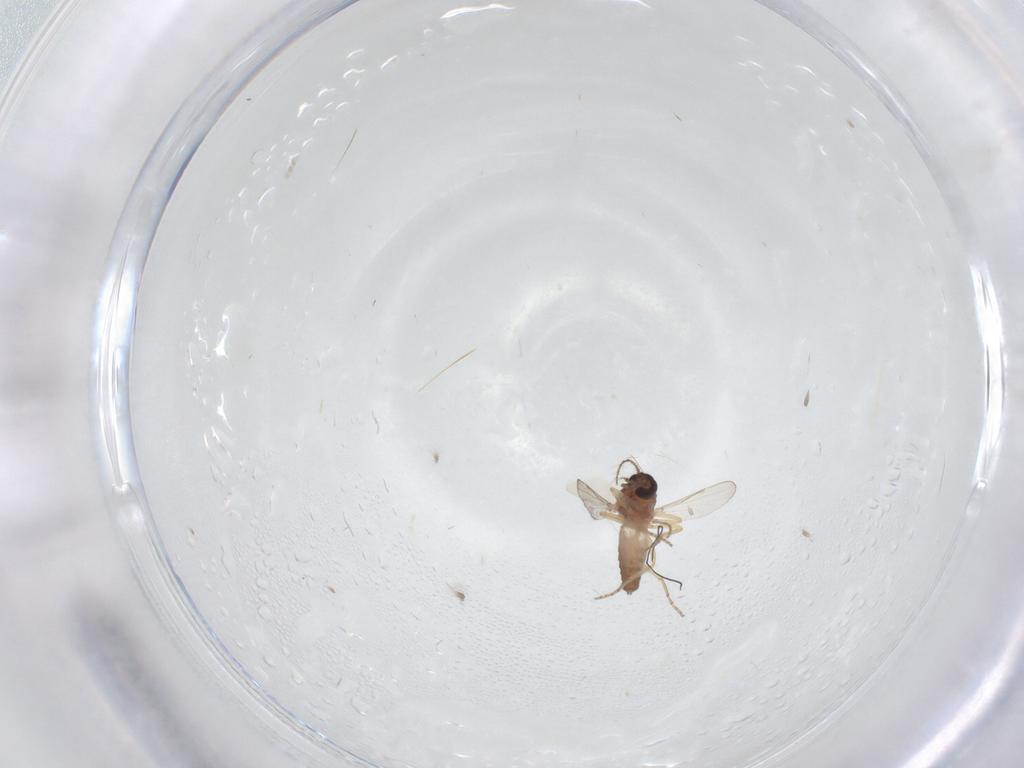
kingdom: Animalia
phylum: Arthropoda
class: Insecta
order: Diptera
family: Ceratopogonidae
